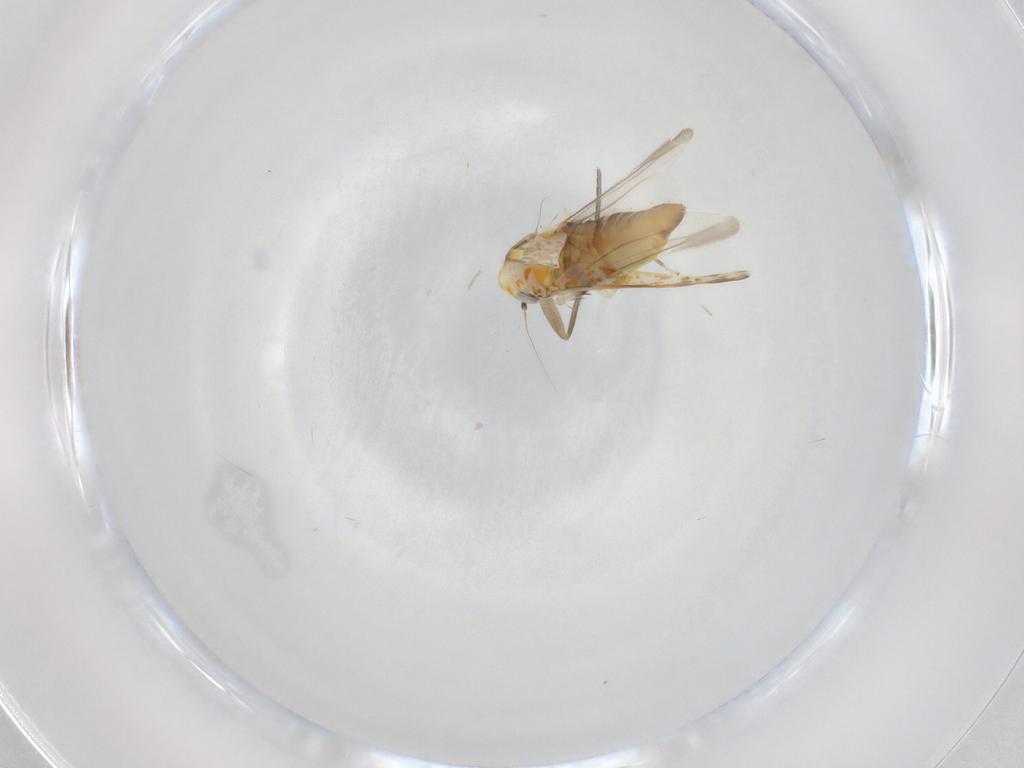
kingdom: Animalia
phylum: Arthropoda
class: Insecta
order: Hemiptera
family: Cicadellidae
